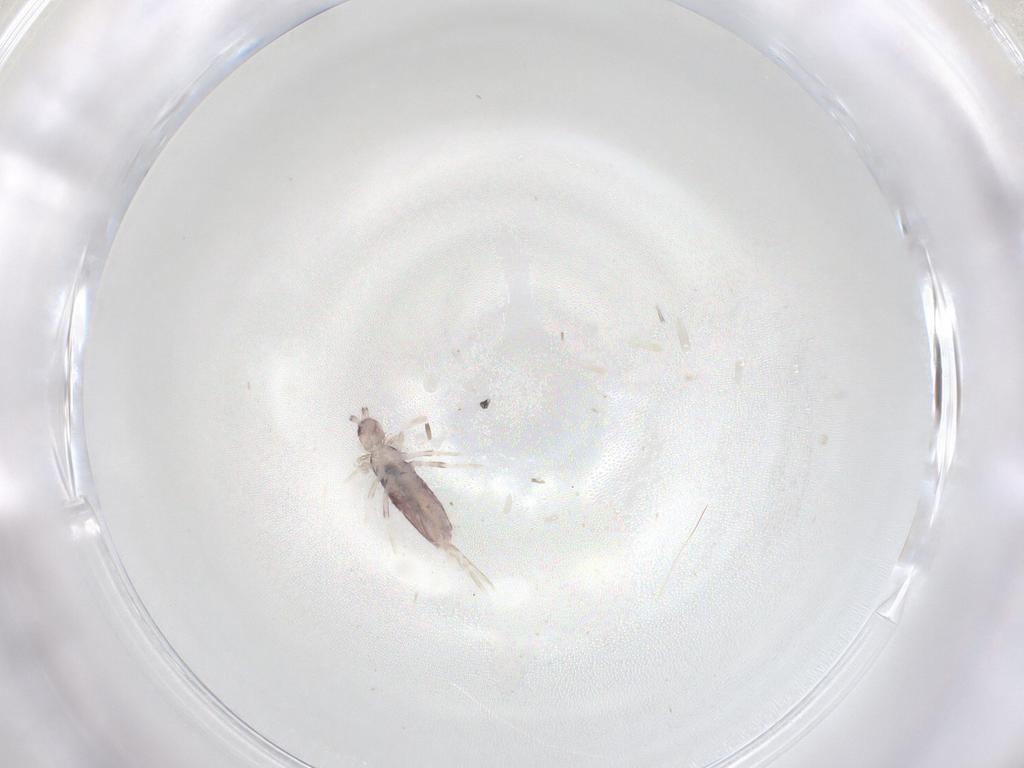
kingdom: Animalia
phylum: Arthropoda
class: Collembola
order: Poduromorpha
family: Hypogastruridae
